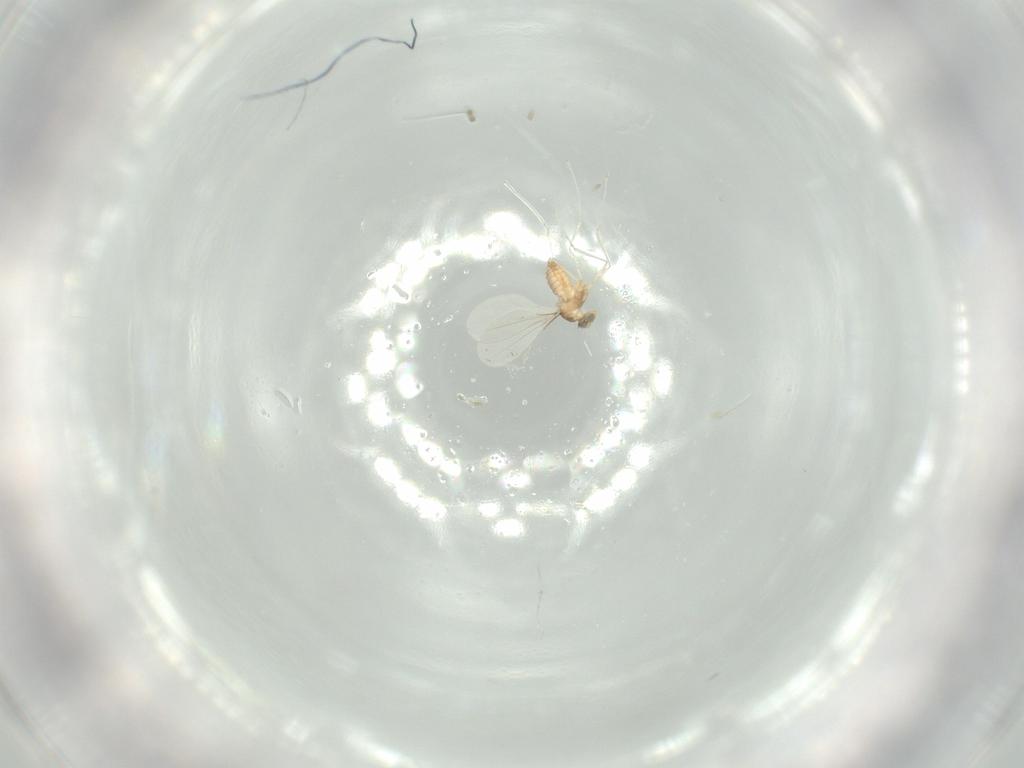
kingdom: Animalia
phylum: Arthropoda
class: Insecta
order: Diptera
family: Cecidomyiidae
